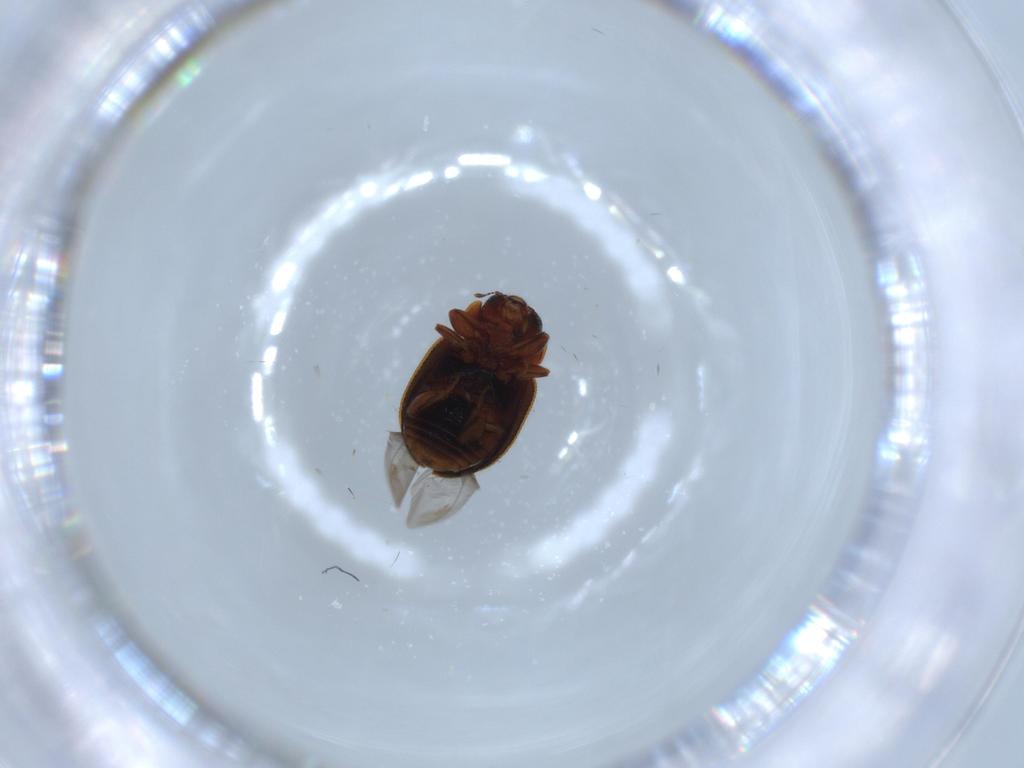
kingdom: Animalia
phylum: Arthropoda
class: Insecta
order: Coleoptera
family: Coccinellidae
